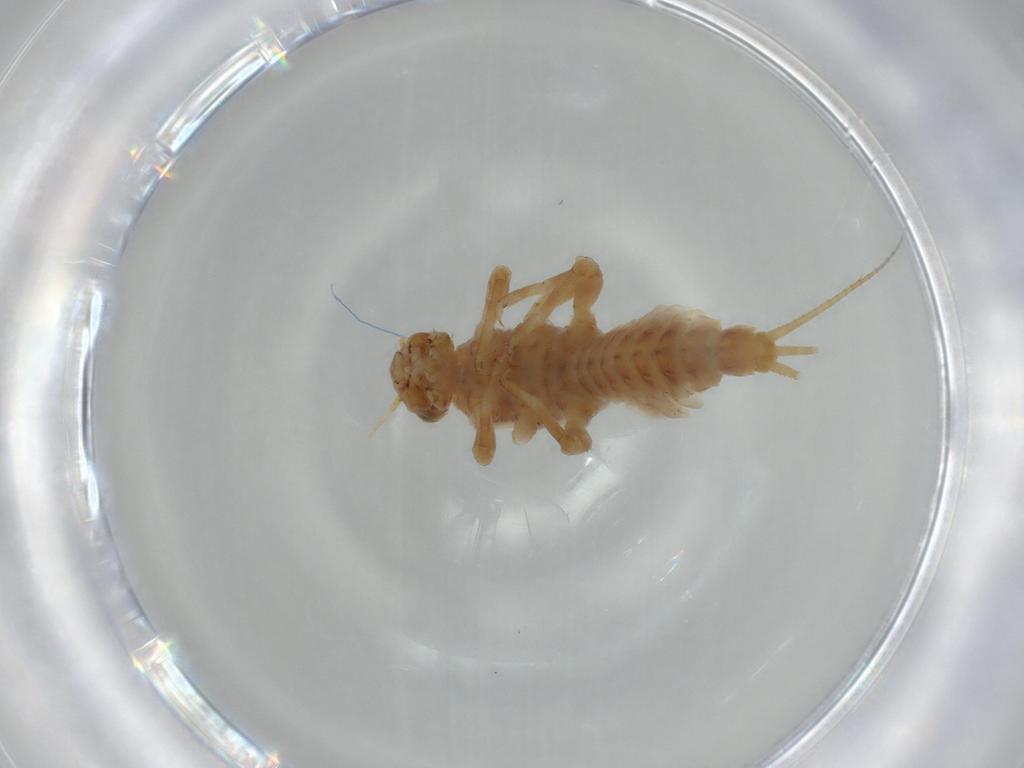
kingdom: Animalia
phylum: Arthropoda
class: Insecta
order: Ephemeroptera
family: Ephemerellidae
